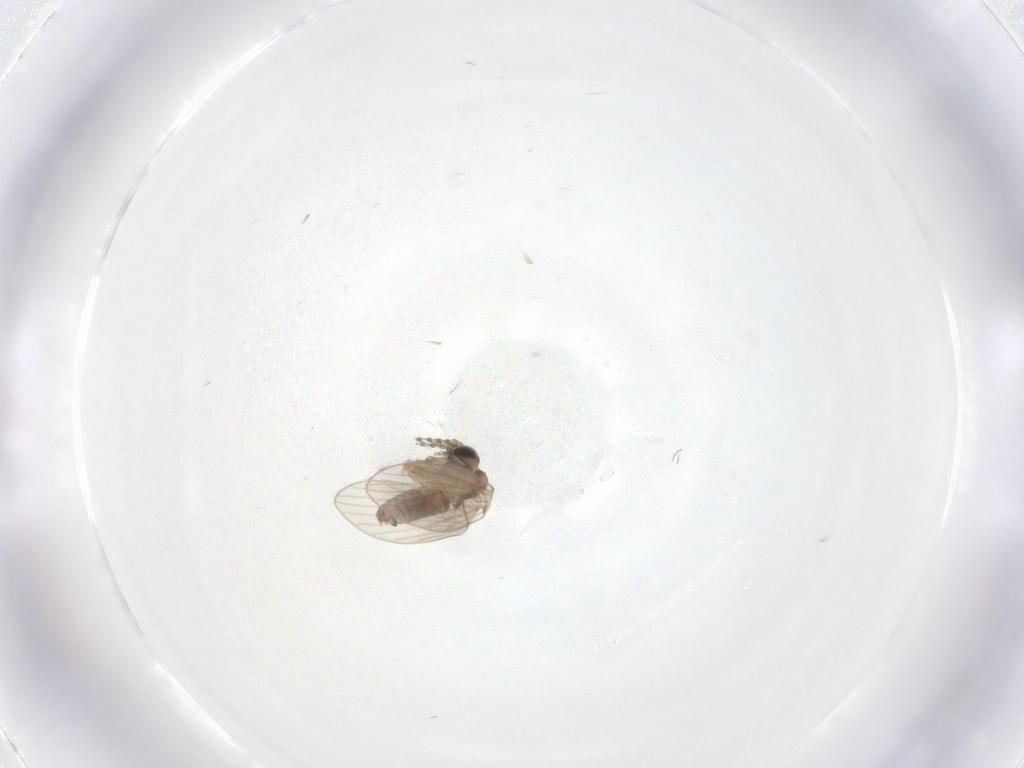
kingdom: Animalia
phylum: Arthropoda
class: Insecta
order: Diptera
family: Psychodidae
